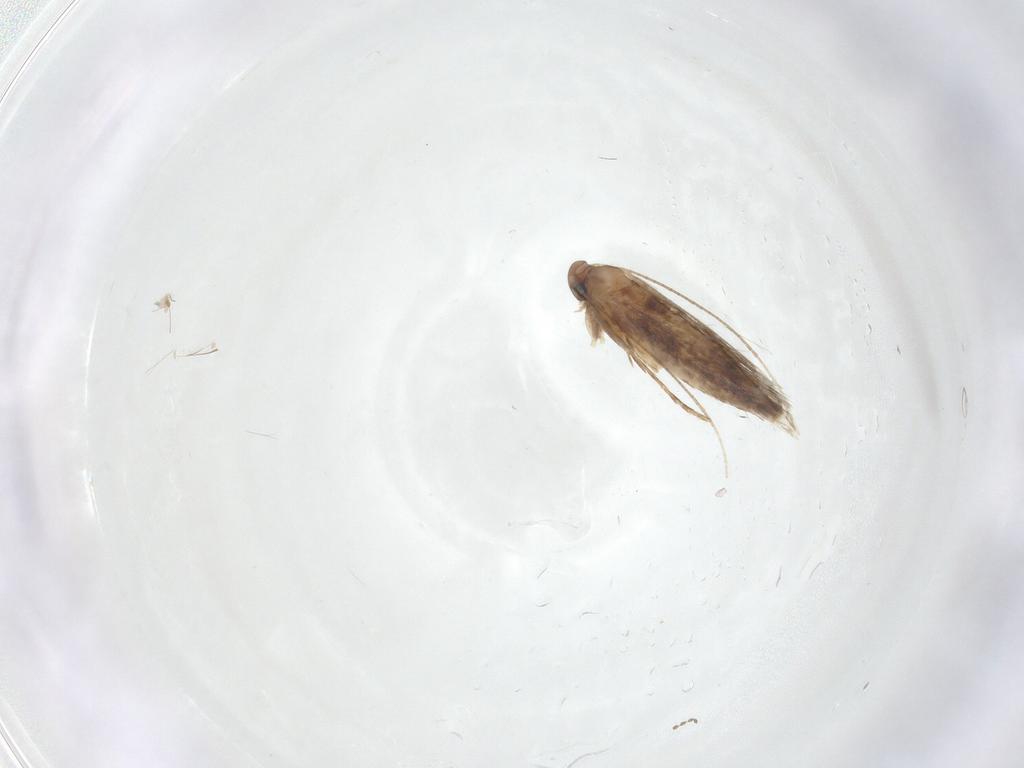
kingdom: Animalia
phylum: Arthropoda
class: Insecta
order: Lepidoptera
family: Gracillariidae
